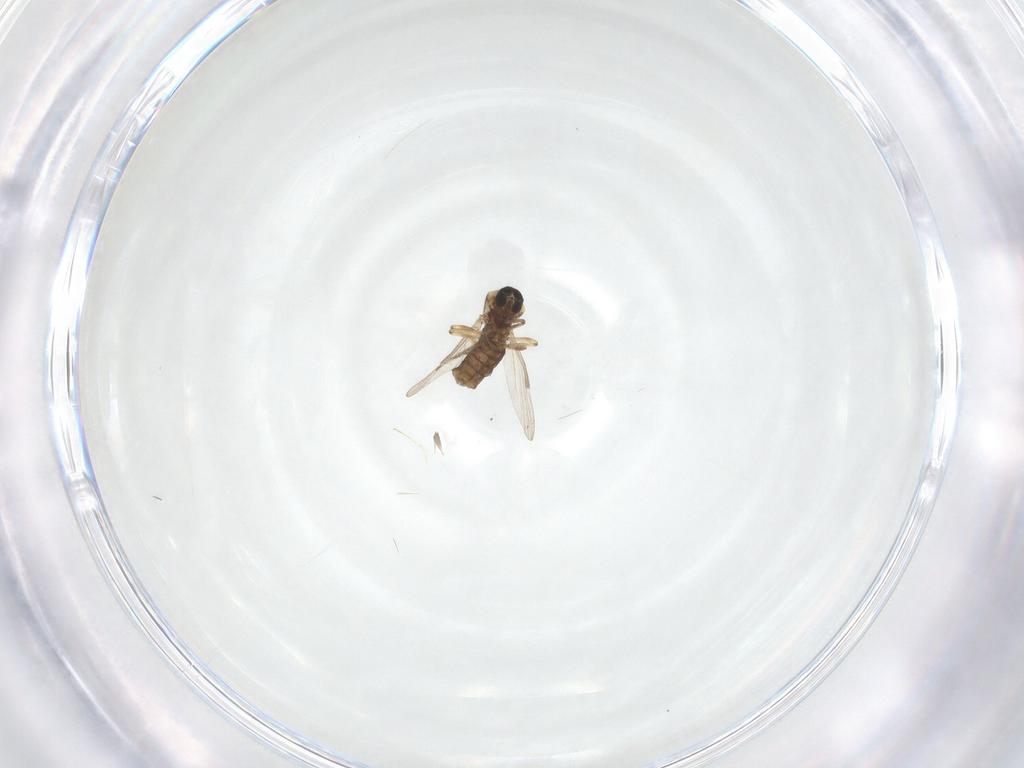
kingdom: Animalia
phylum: Arthropoda
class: Insecta
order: Diptera
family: Ceratopogonidae
